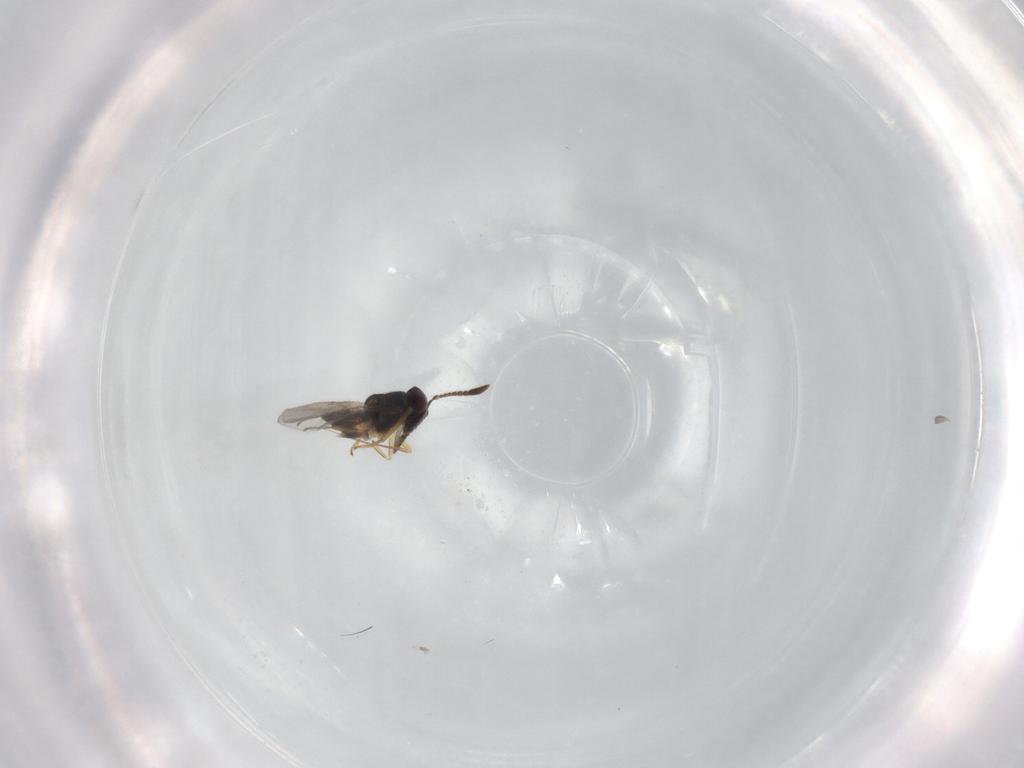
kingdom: Animalia
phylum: Arthropoda
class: Insecta
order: Hymenoptera
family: Encyrtidae
